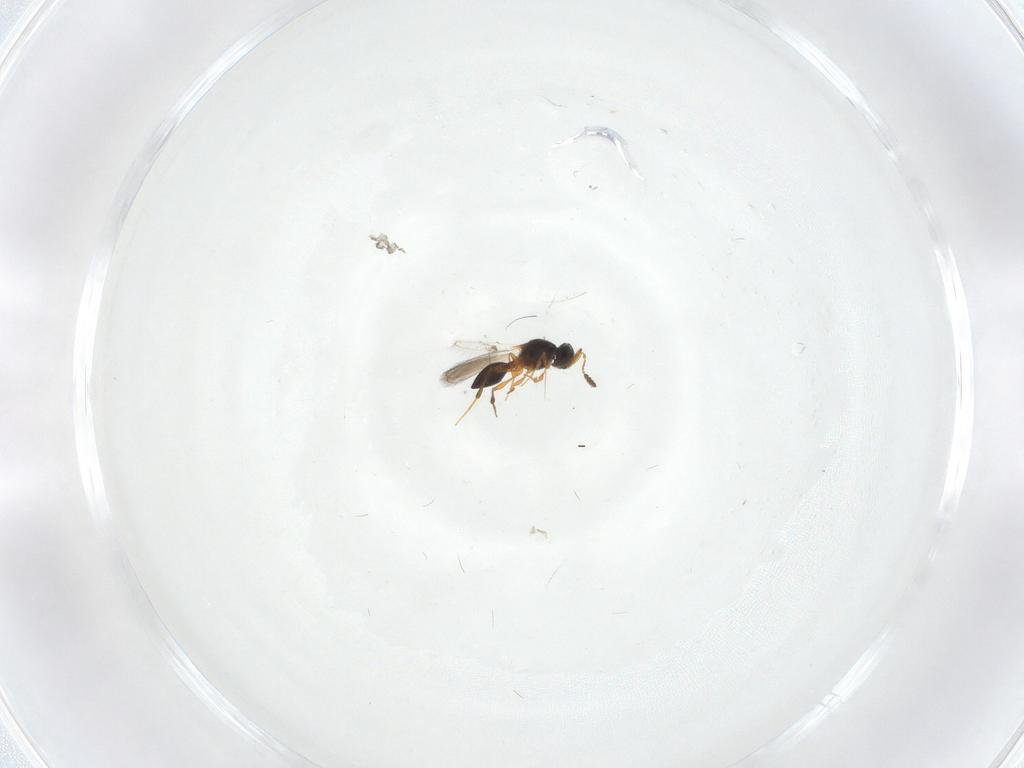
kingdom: Animalia
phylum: Arthropoda
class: Insecta
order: Hymenoptera
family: Platygastridae
